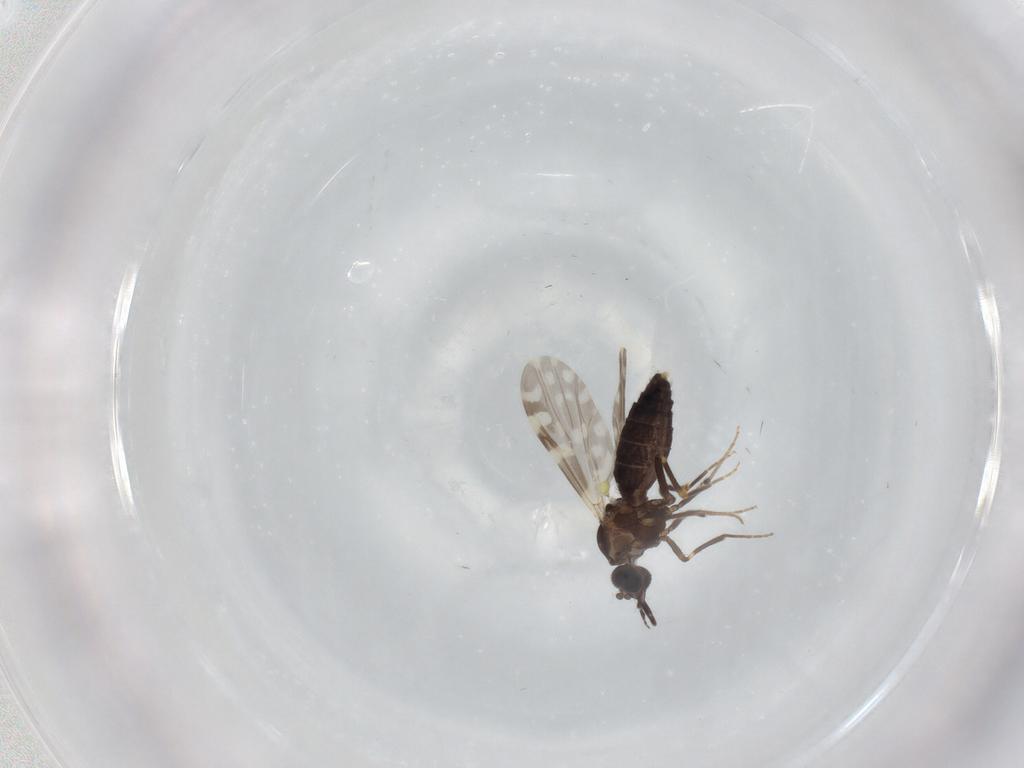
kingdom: Animalia
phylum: Arthropoda
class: Insecta
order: Diptera
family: Ceratopogonidae
